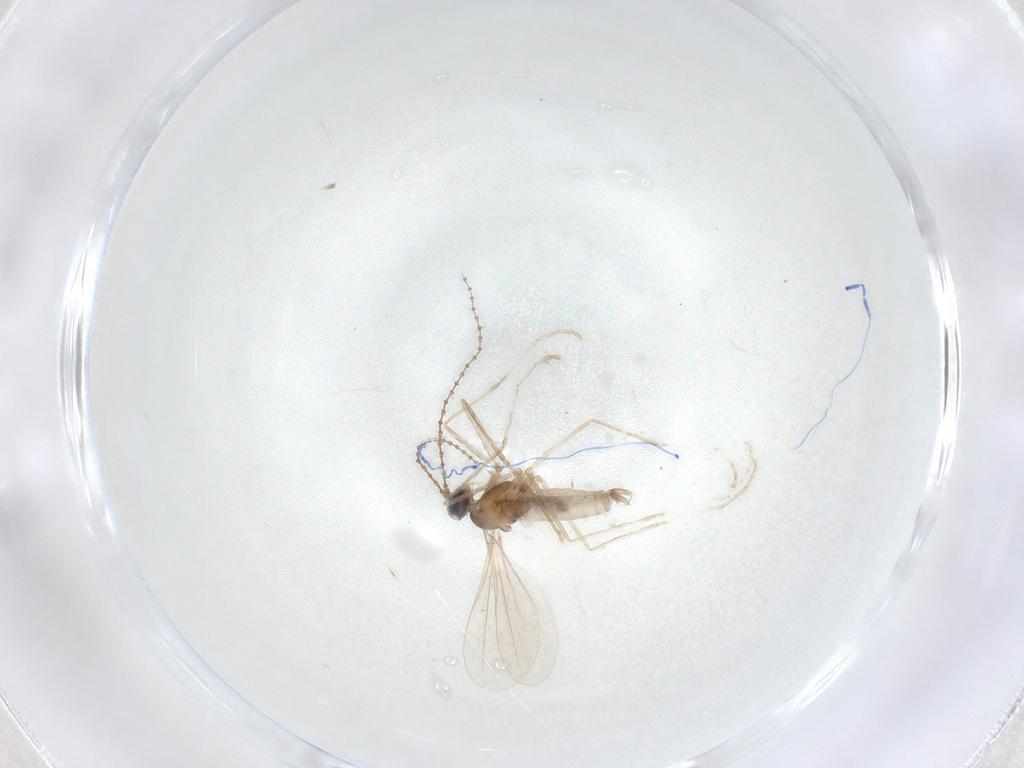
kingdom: Animalia
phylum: Arthropoda
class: Insecta
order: Diptera
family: Cecidomyiidae
